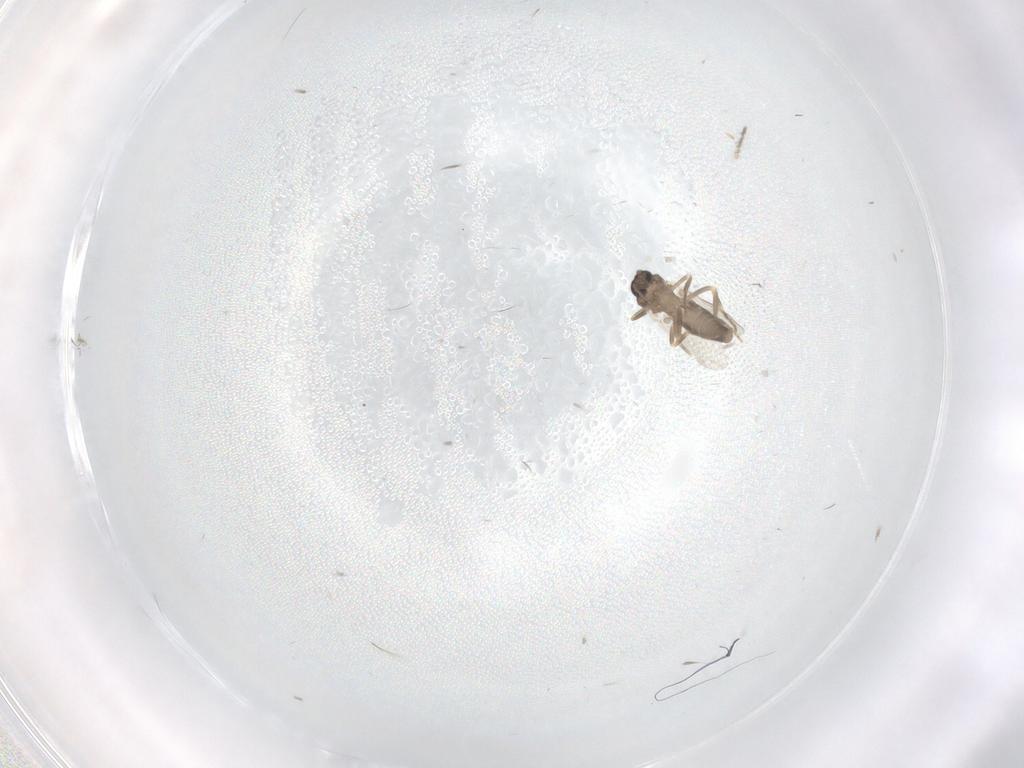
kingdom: Animalia
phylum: Arthropoda
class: Insecta
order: Diptera
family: Ceratopogonidae
